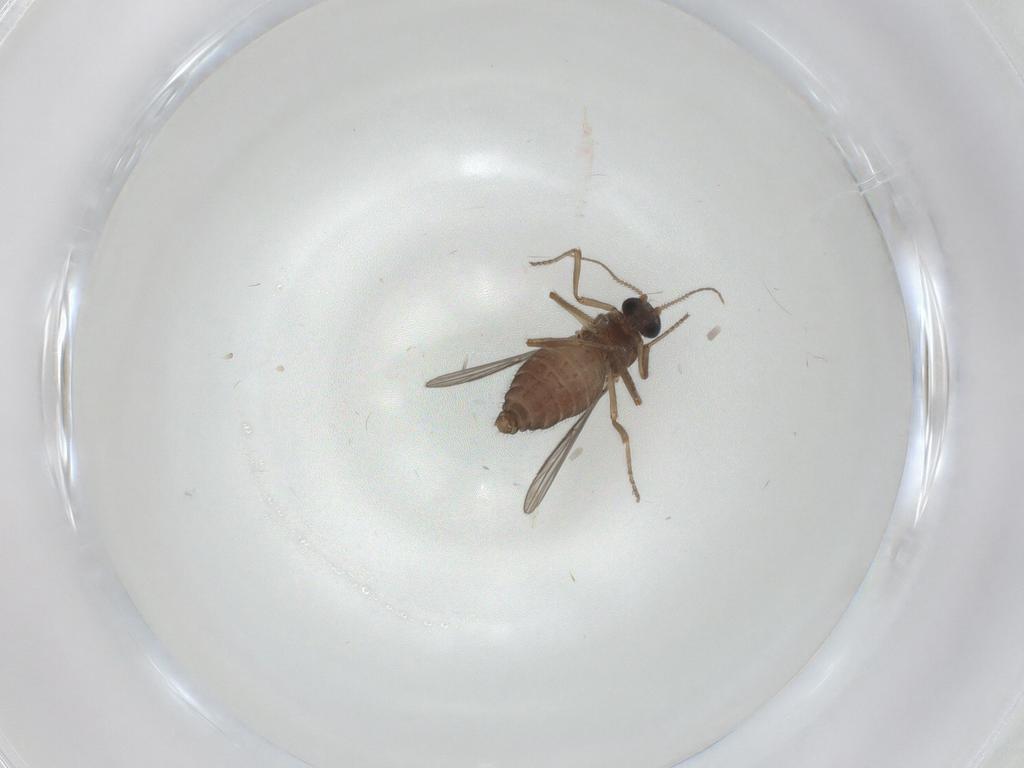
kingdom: Animalia
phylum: Arthropoda
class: Insecta
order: Diptera
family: Ceratopogonidae
